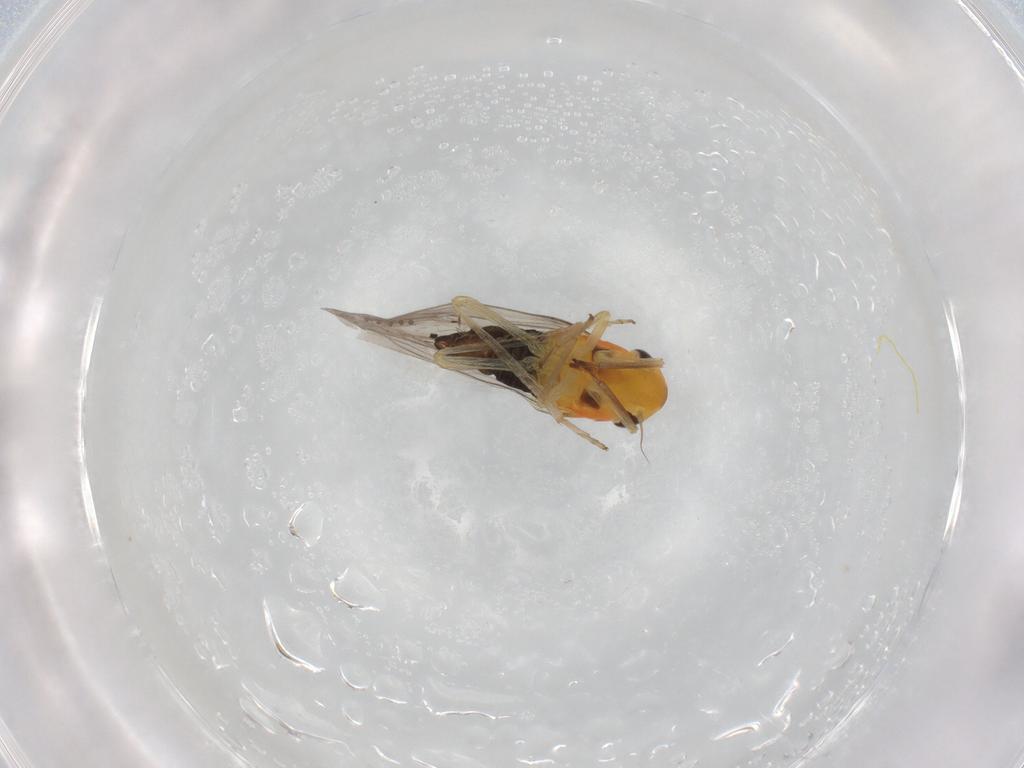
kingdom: Animalia
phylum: Arthropoda
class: Insecta
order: Hemiptera
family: Cicadellidae
